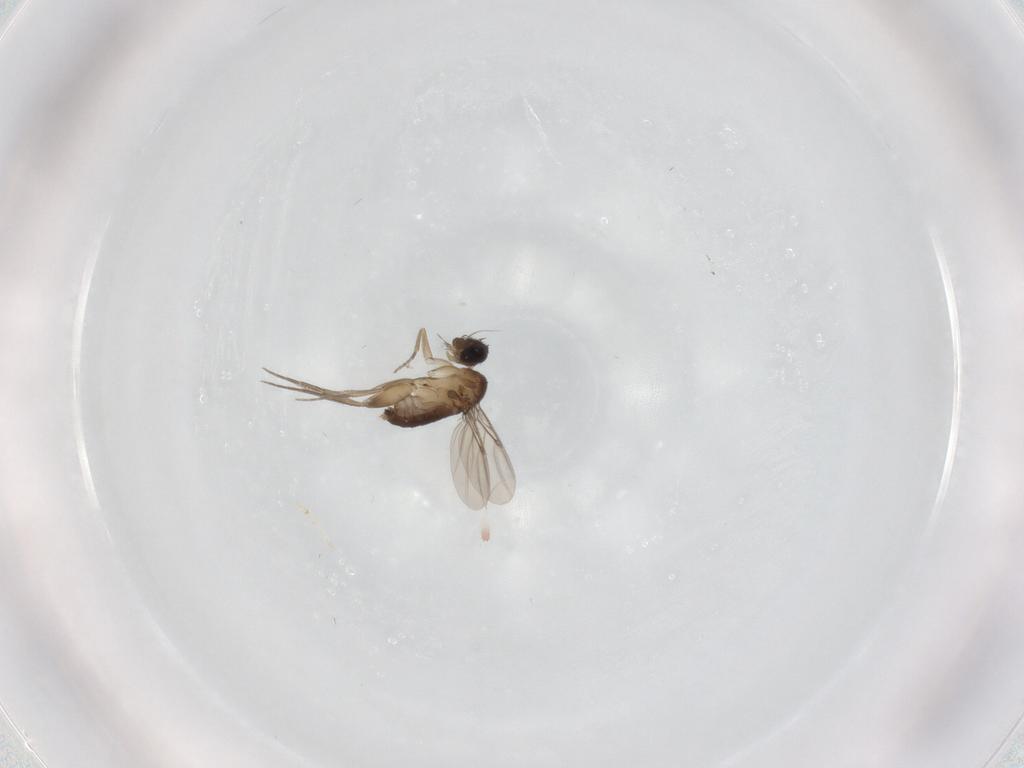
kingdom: Animalia
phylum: Arthropoda
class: Insecta
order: Diptera
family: Phoridae
